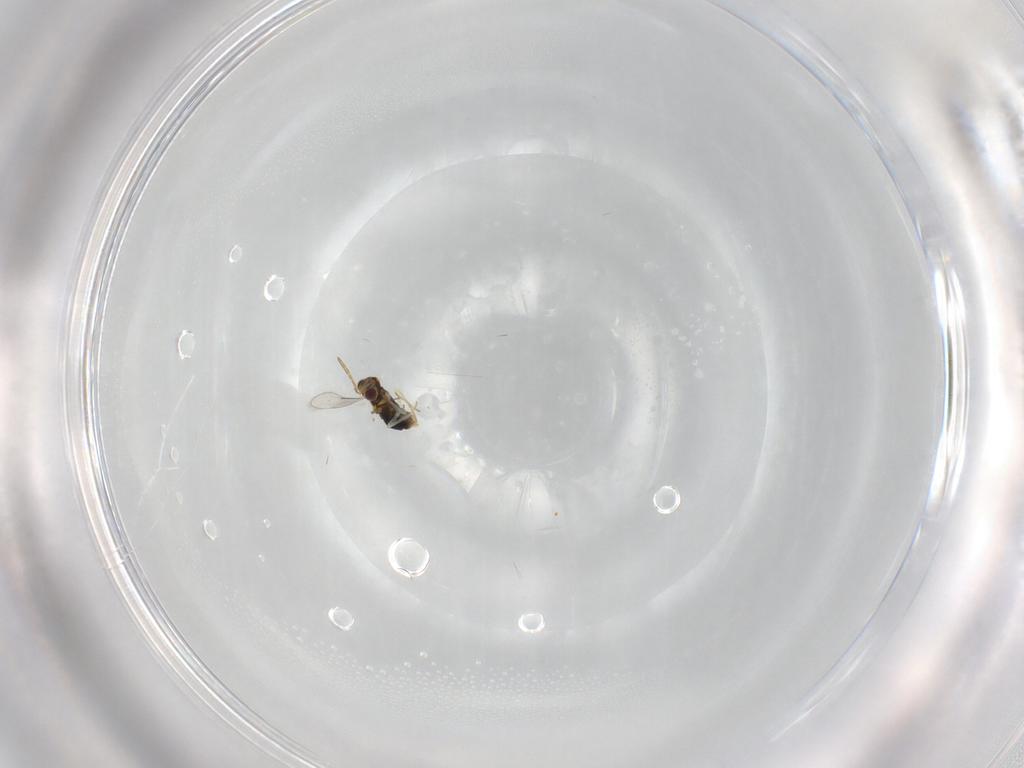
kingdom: Animalia
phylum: Arthropoda
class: Insecta
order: Hymenoptera
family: Aphelinidae
